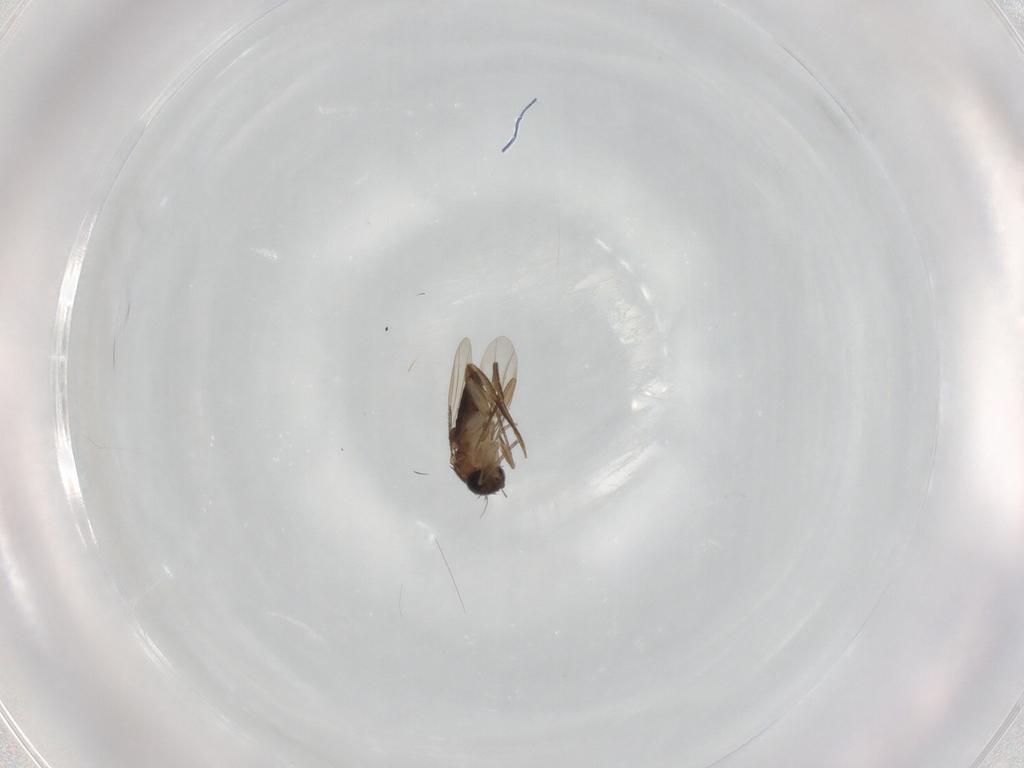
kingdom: Animalia
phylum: Arthropoda
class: Insecta
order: Diptera
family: Phoridae
